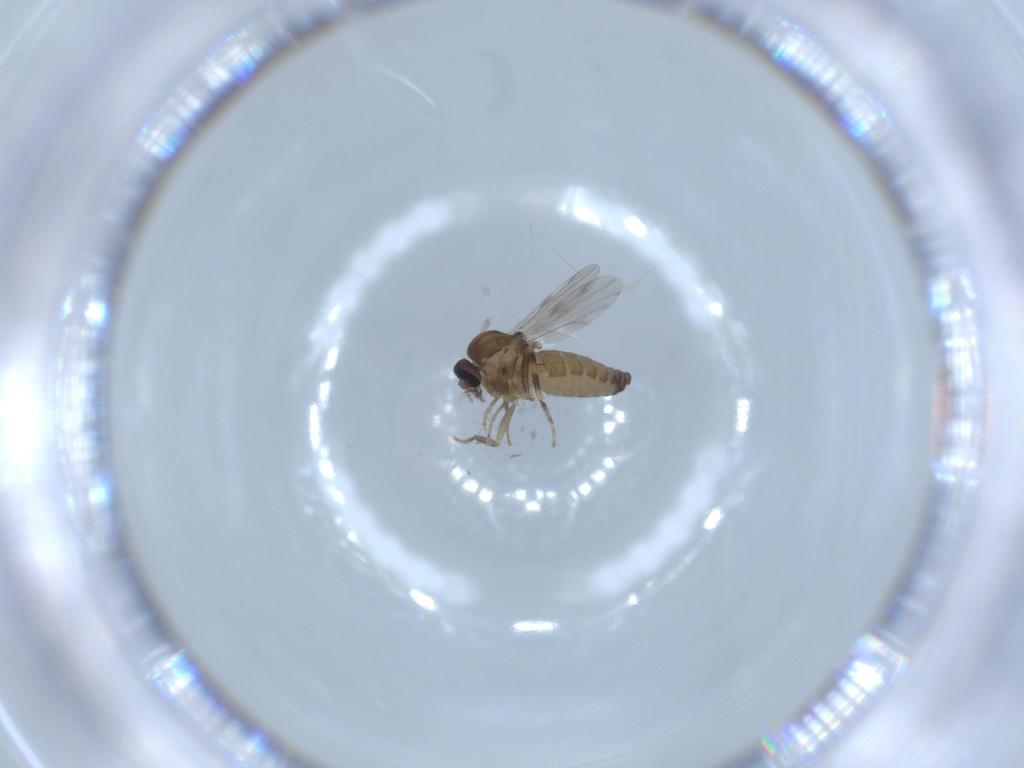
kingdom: Animalia
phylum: Arthropoda
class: Insecta
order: Diptera
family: Ceratopogonidae
